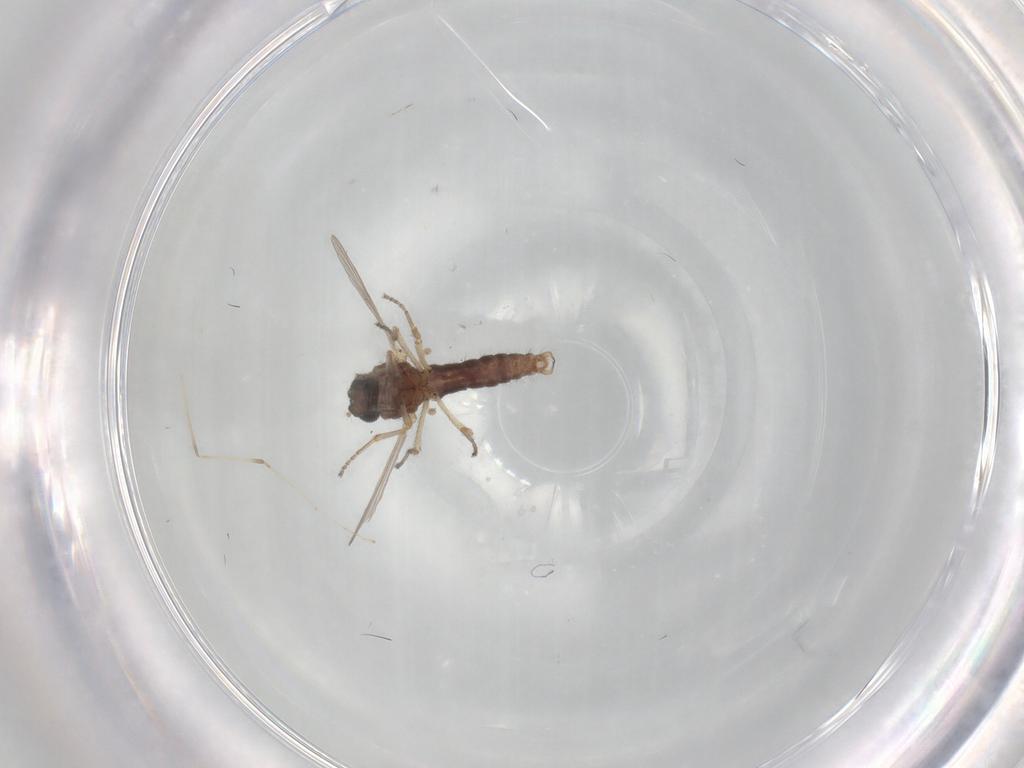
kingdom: Animalia
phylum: Arthropoda
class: Insecta
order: Diptera
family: Ceratopogonidae
